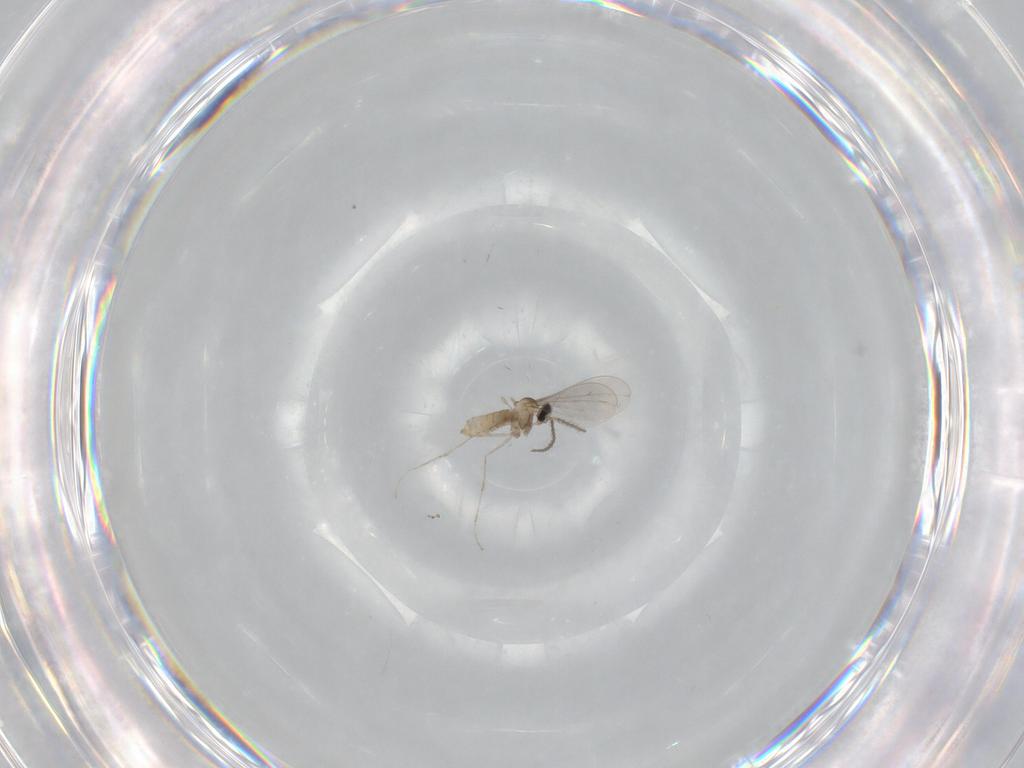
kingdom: Animalia
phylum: Arthropoda
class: Insecta
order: Diptera
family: Cecidomyiidae
